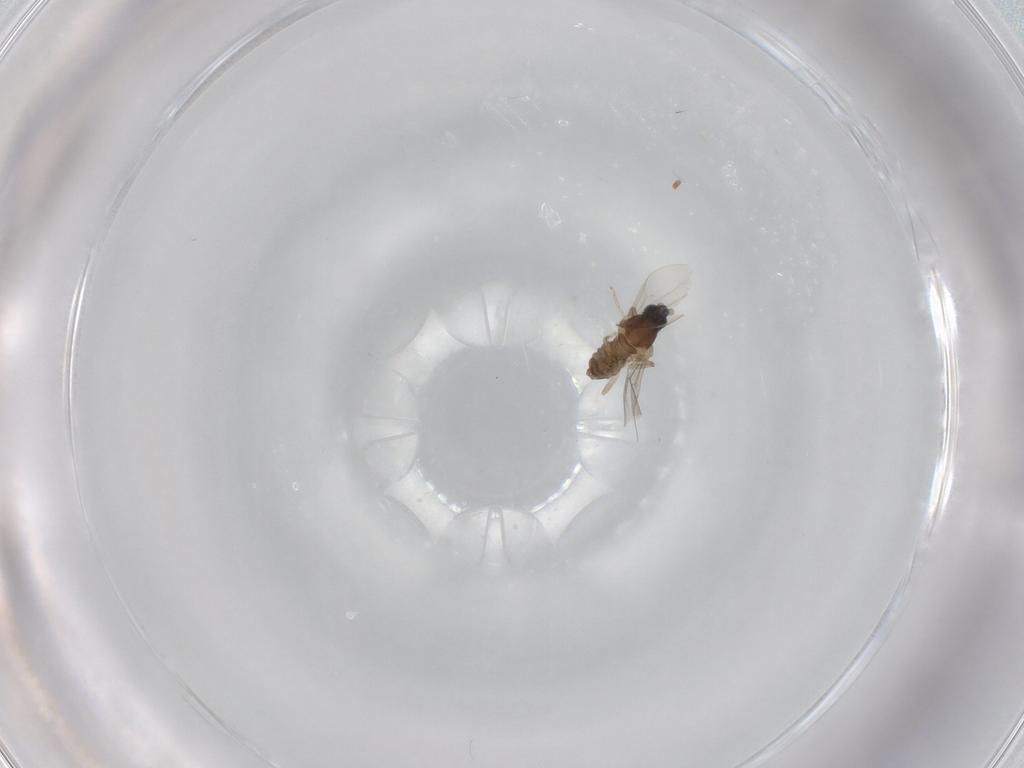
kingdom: Animalia
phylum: Arthropoda
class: Insecta
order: Diptera
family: Cecidomyiidae
